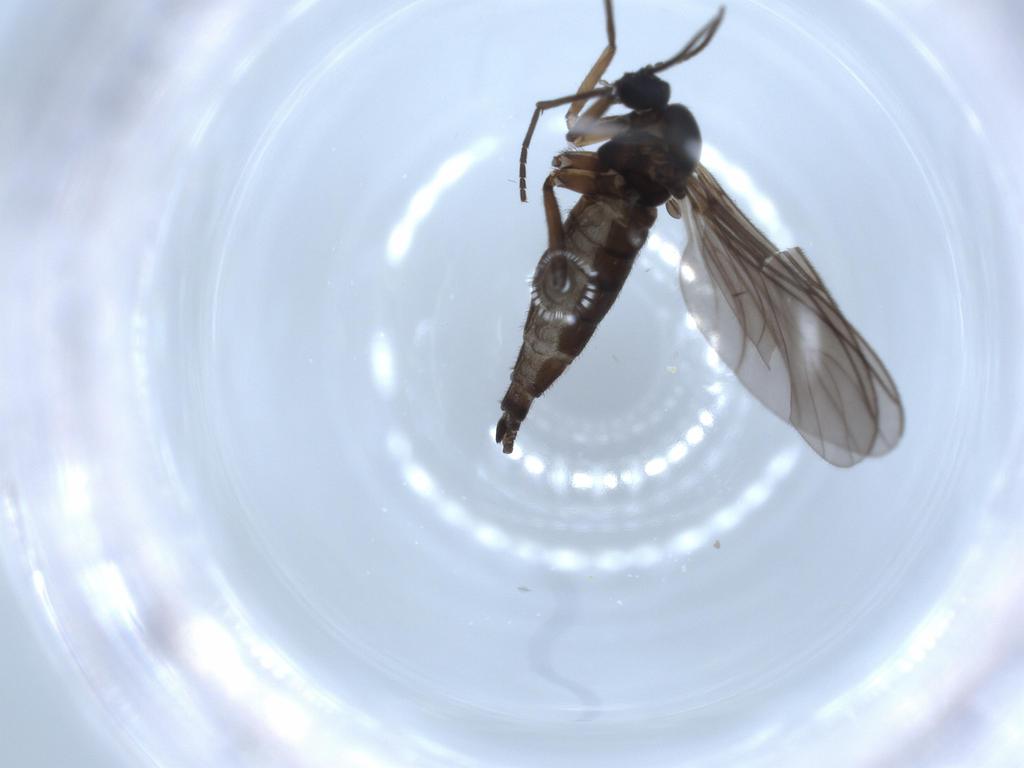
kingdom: Animalia
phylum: Arthropoda
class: Insecta
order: Diptera
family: Sciaridae
